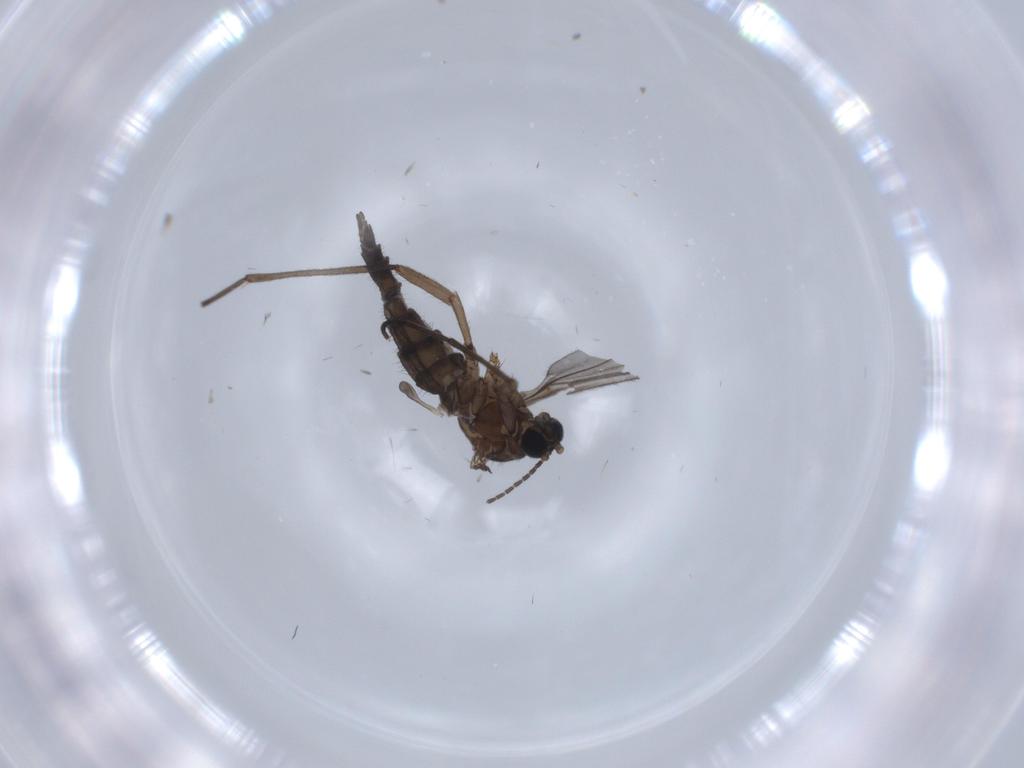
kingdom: Animalia
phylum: Arthropoda
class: Insecta
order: Diptera
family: Sciaridae
